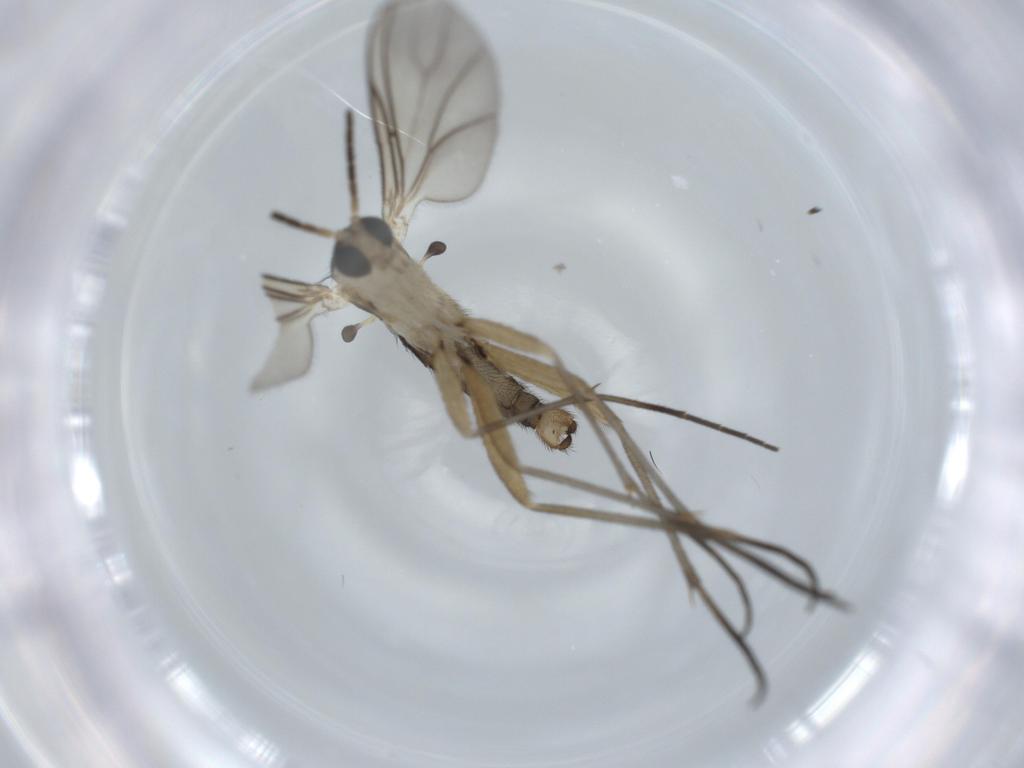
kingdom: Animalia
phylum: Arthropoda
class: Insecta
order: Diptera
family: Sciaridae
